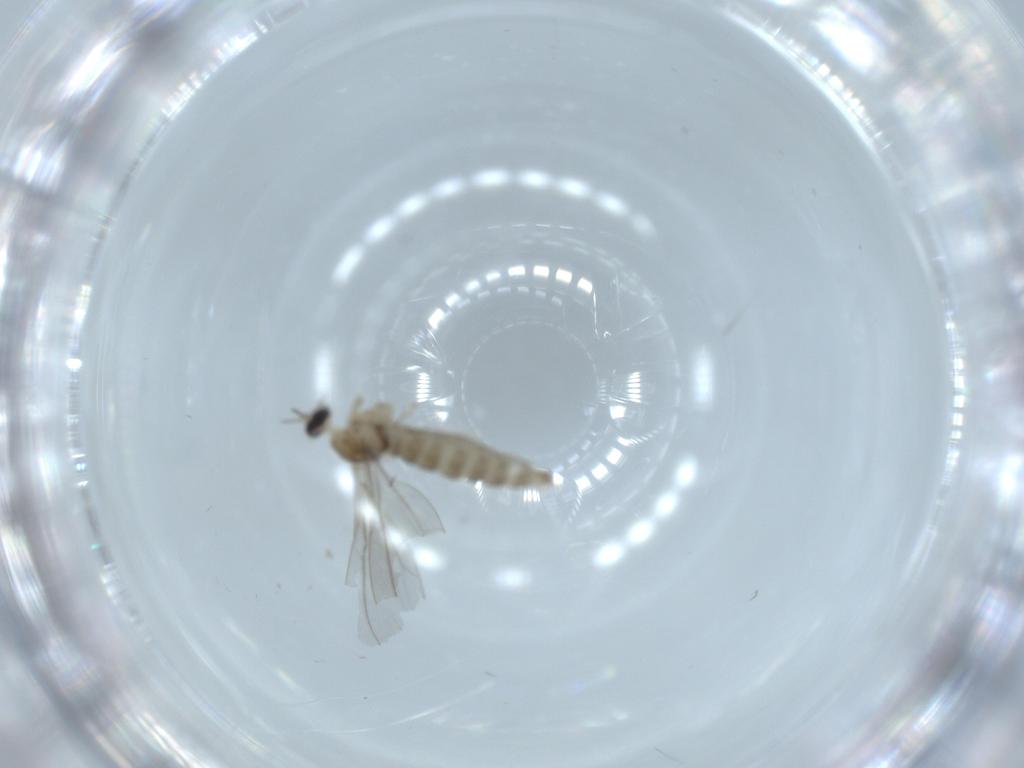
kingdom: Animalia
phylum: Arthropoda
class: Insecta
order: Diptera
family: Cecidomyiidae
